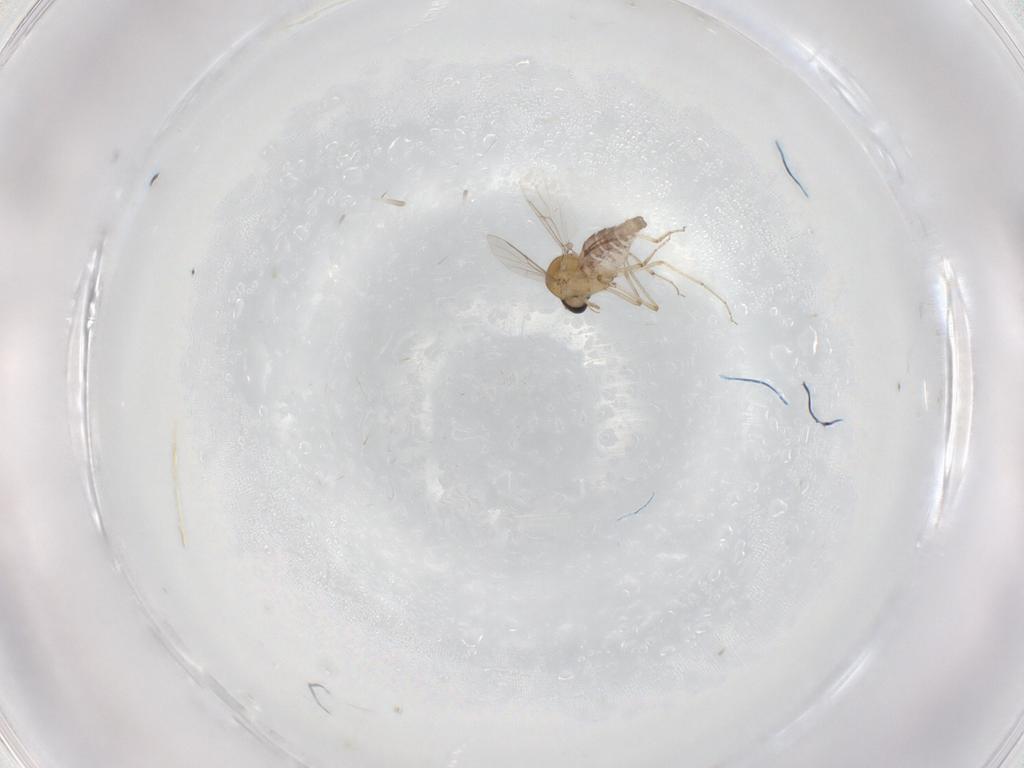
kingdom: Animalia
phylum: Arthropoda
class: Insecta
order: Diptera
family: Ceratopogonidae
